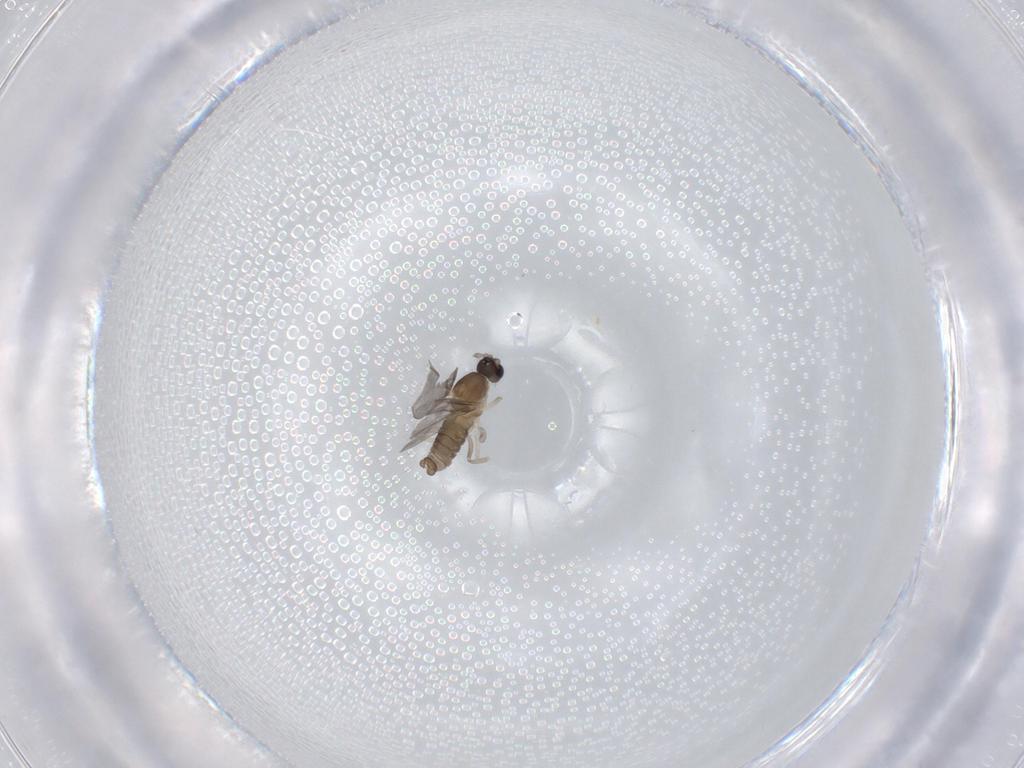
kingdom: Animalia
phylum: Arthropoda
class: Insecta
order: Diptera
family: Cecidomyiidae
